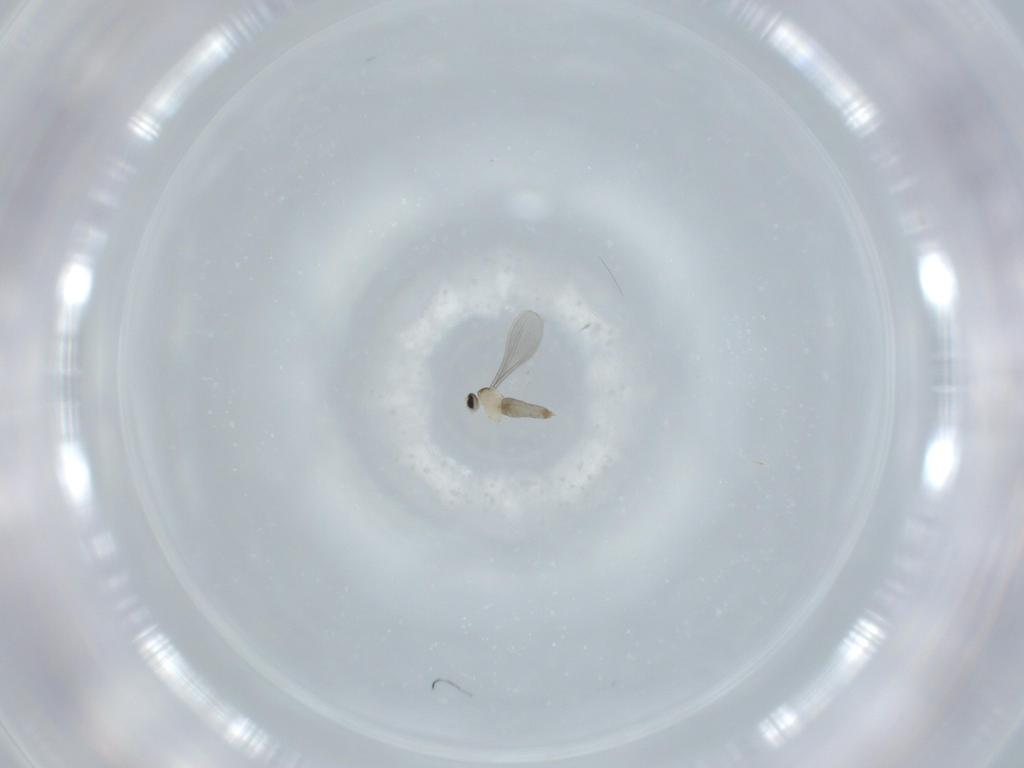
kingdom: Animalia
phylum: Arthropoda
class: Insecta
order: Diptera
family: Milichiidae
